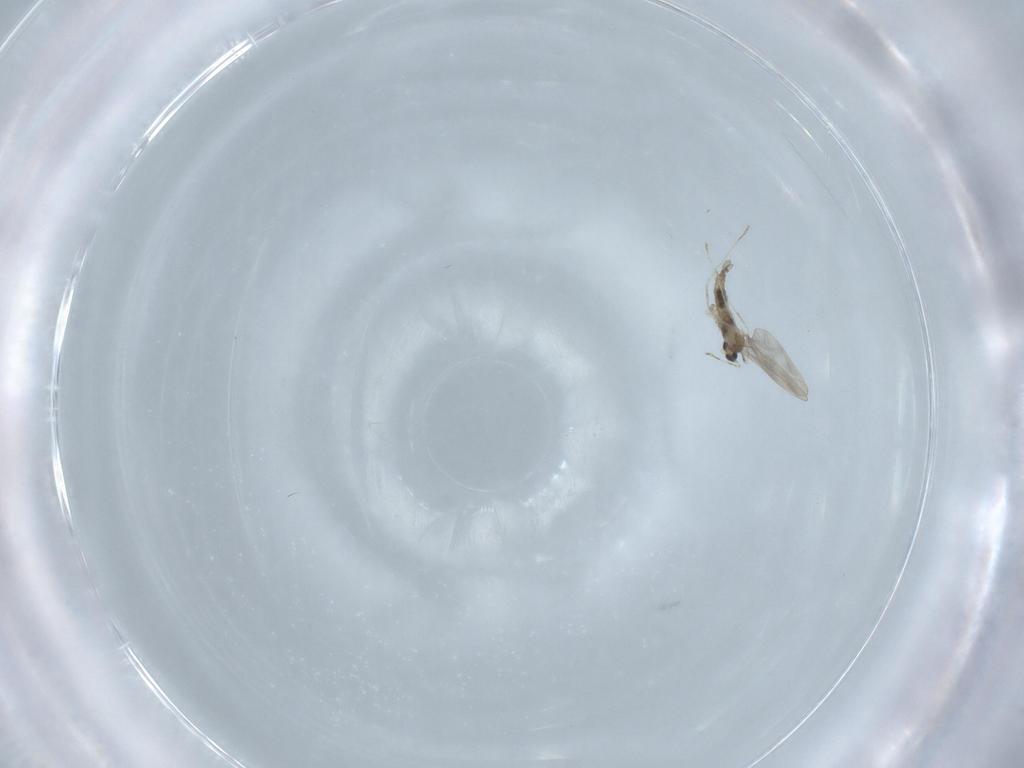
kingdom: Animalia
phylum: Arthropoda
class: Insecta
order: Diptera
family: Cecidomyiidae
